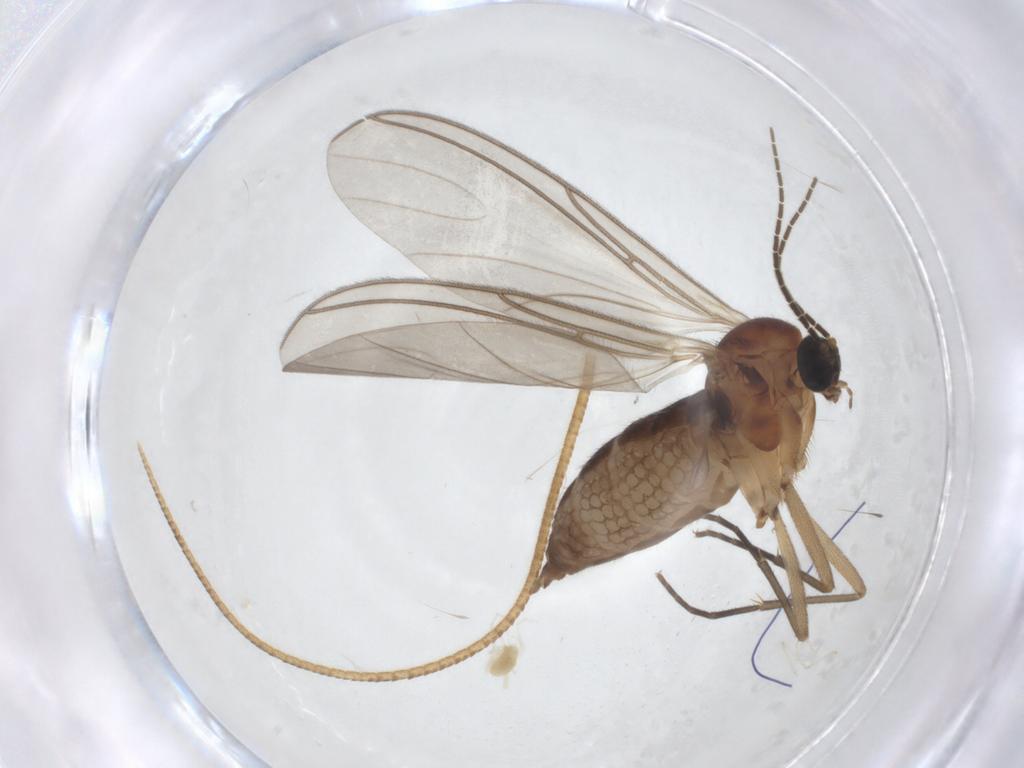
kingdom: Animalia
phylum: Arthropoda
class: Insecta
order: Diptera
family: Sciaridae
